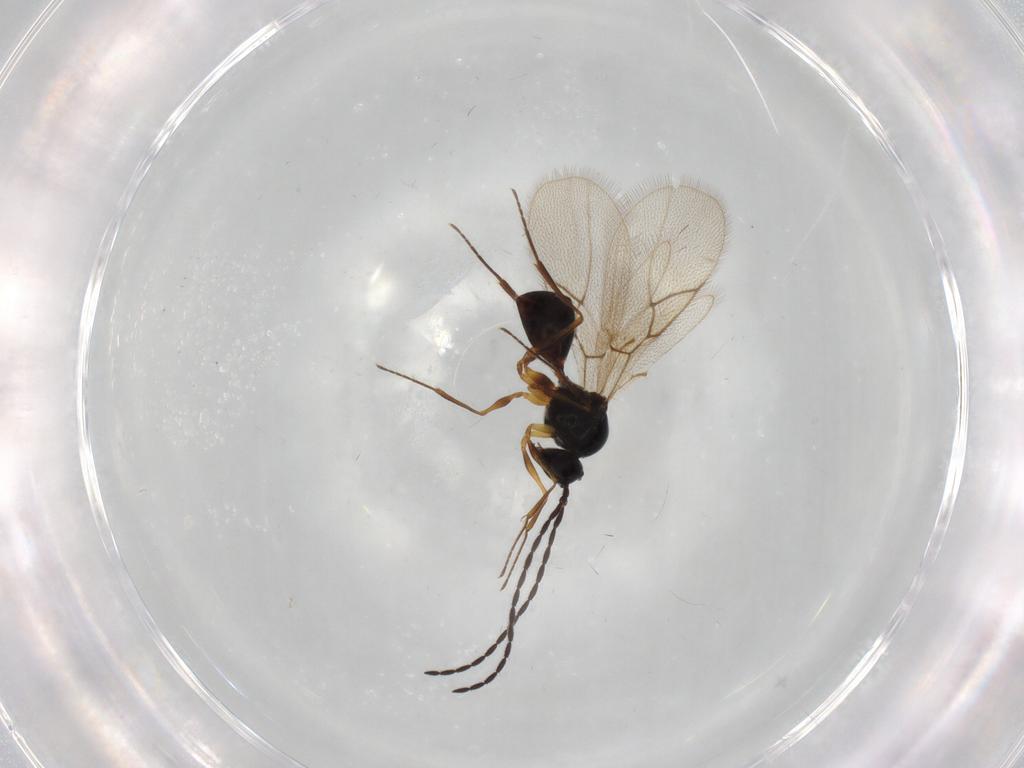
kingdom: Animalia
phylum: Arthropoda
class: Insecta
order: Hymenoptera
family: Figitidae
